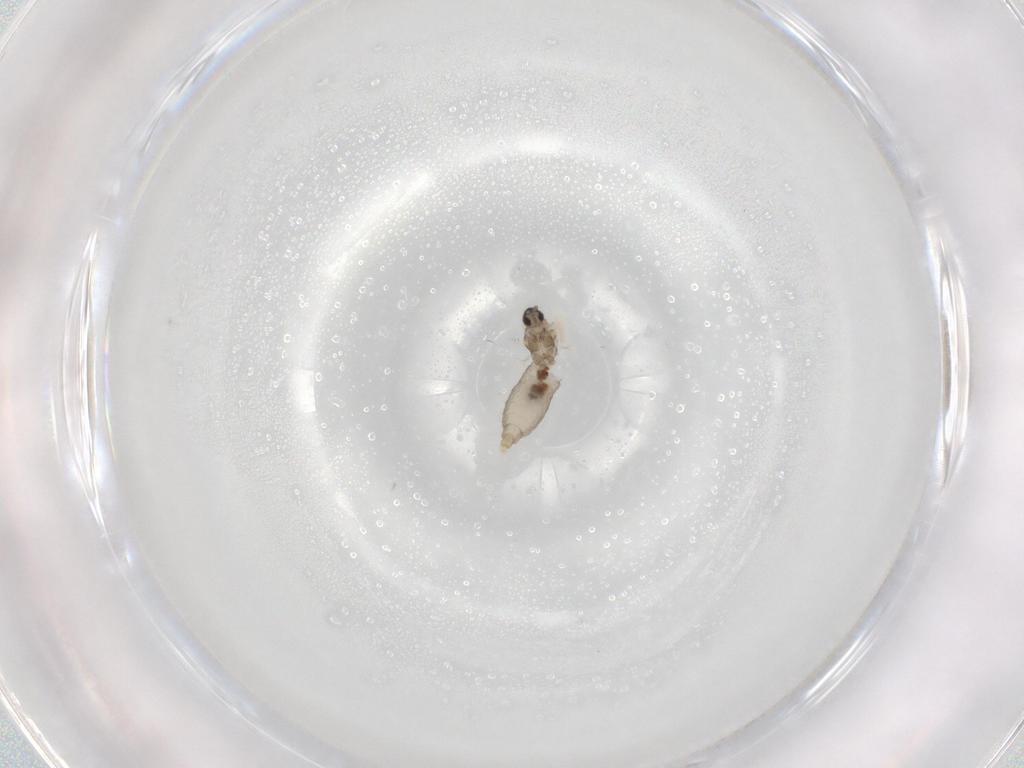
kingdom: Animalia
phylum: Arthropoda
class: Insecta
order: Diptera
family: Cecidomyiidae
